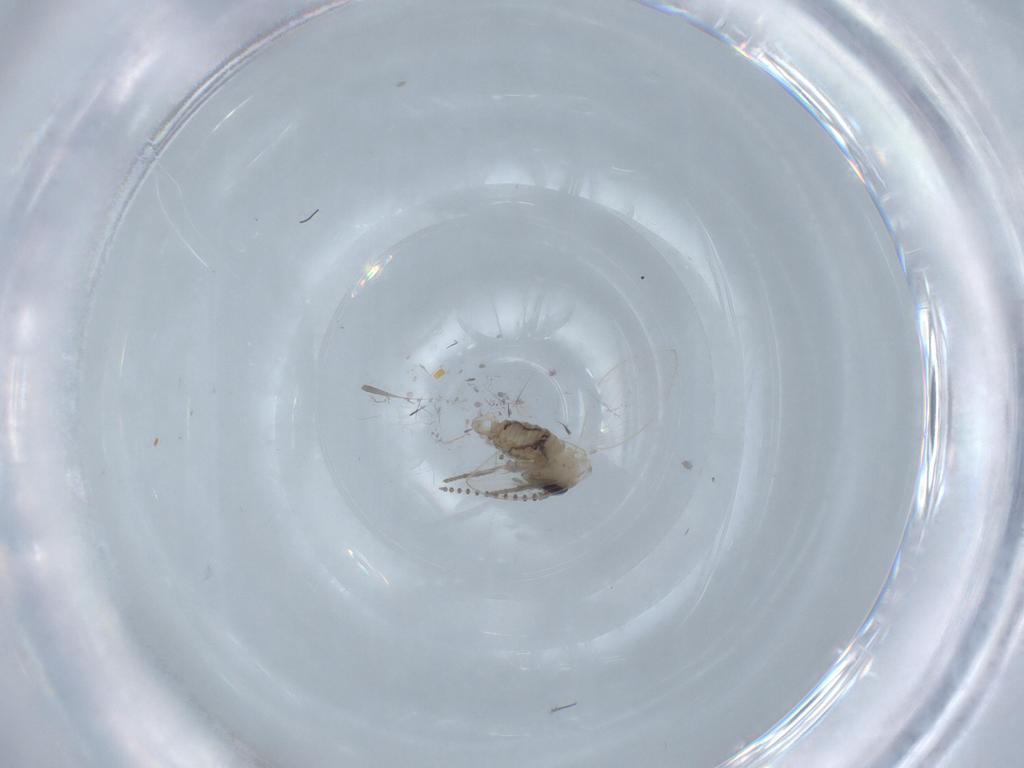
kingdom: Animalia
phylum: Arthropoda
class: Insecta
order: Diptera
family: Psychodidae
